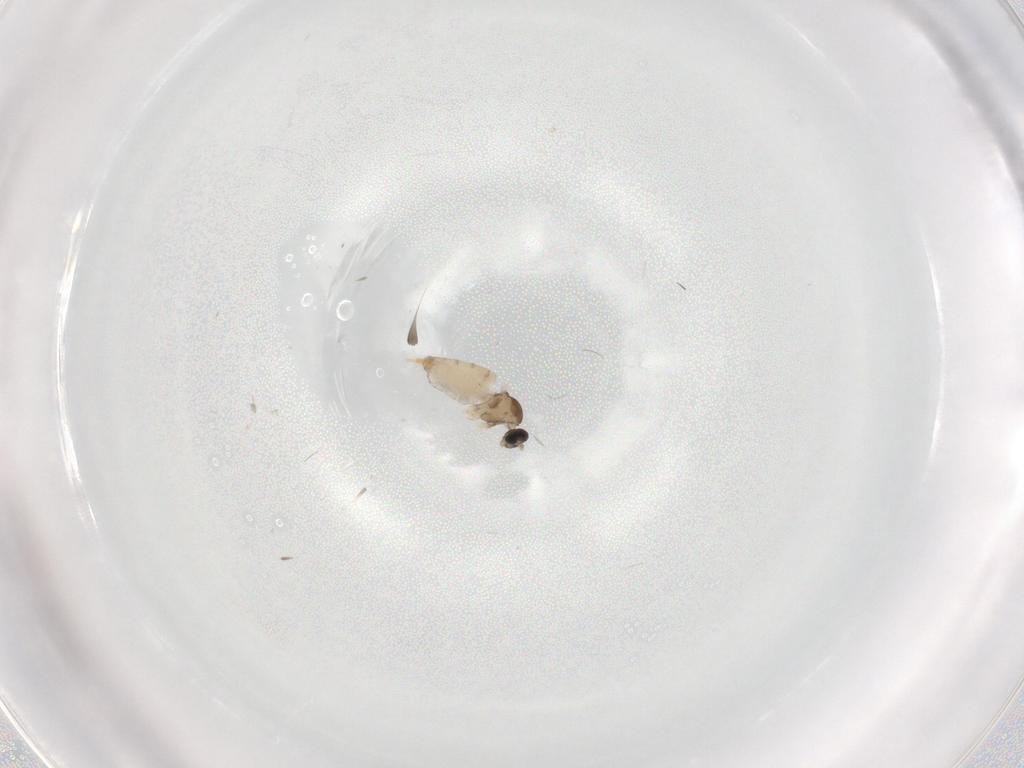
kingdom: Animalia
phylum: Arthropoda
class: Insecta
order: Diptera
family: Cecidomyiidae
